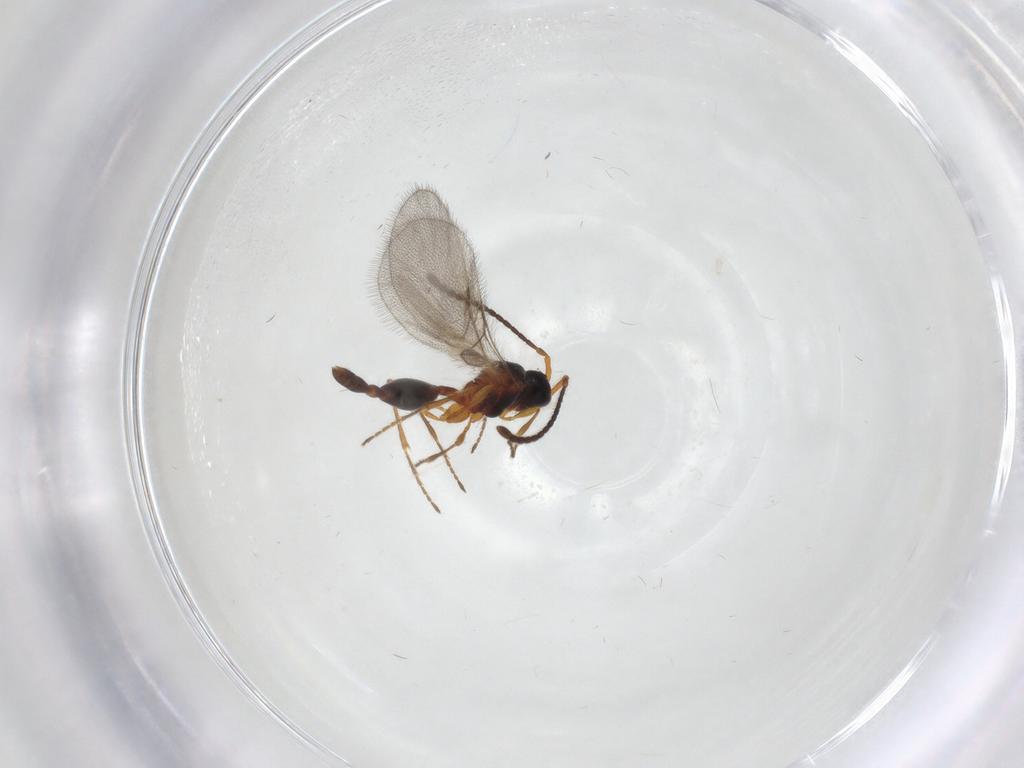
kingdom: Animalia
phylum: Arthropoda
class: Insecta
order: Hymenoptera
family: Diapriidae
